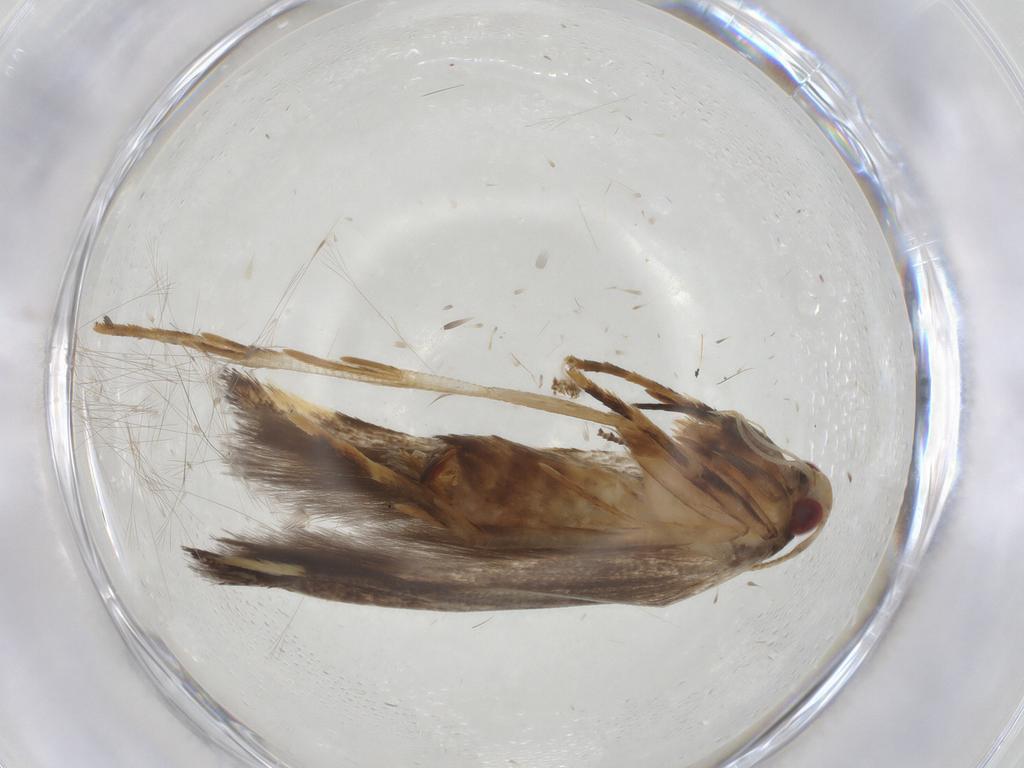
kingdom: Animalia
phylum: Arthropoda
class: Insecta
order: Lepidoptera
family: Cosmopterigidae
